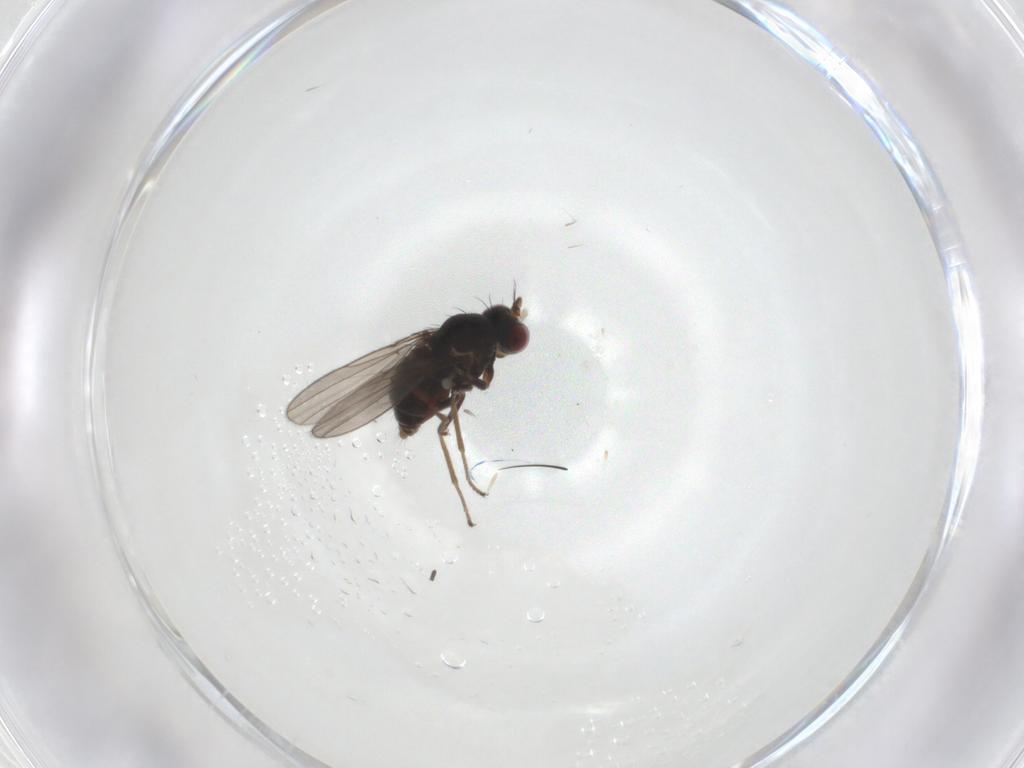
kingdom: Animalia
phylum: Arthropoda
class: Insecta
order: Diptera
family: Ephydridae
